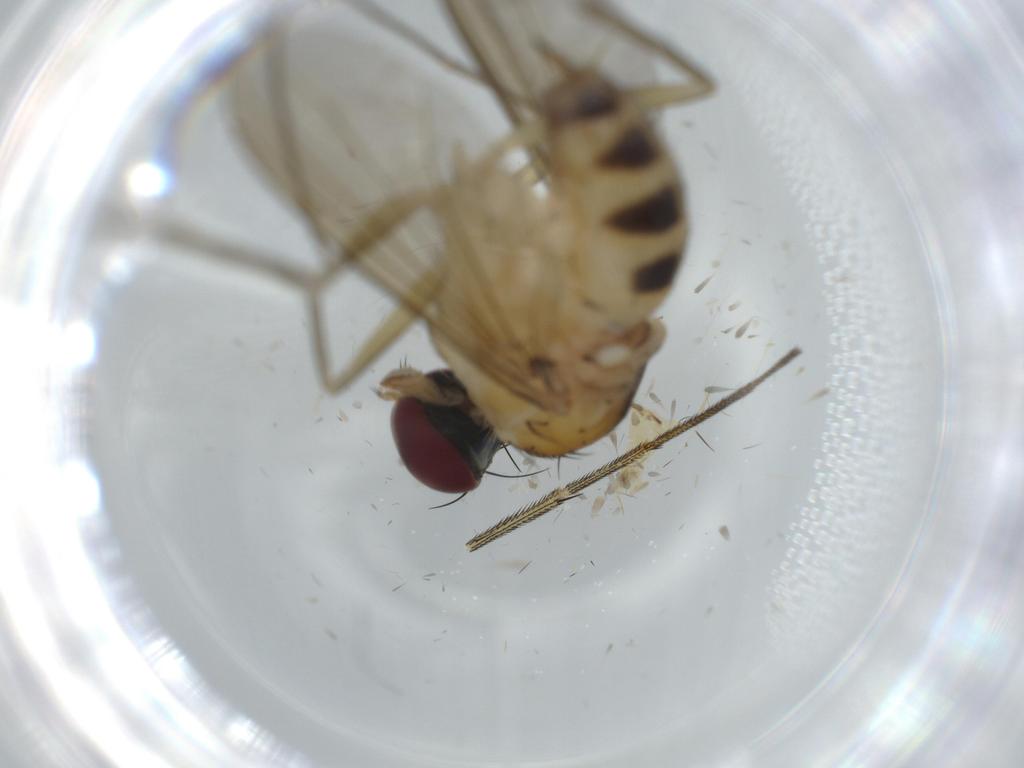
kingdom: Animalia
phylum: Arthropoda
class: Insecta
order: Diptera
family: Dolichopodidae
